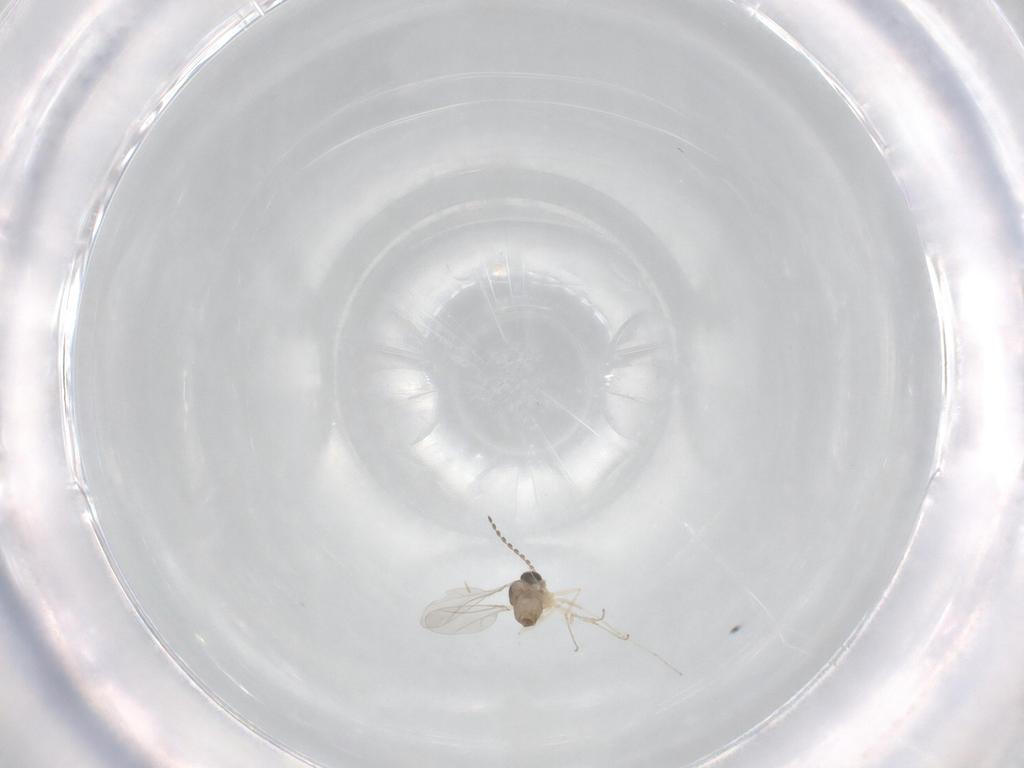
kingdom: Animalia
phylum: Arthropoda
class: Insecta
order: Diptera
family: Cecidomyiidae
